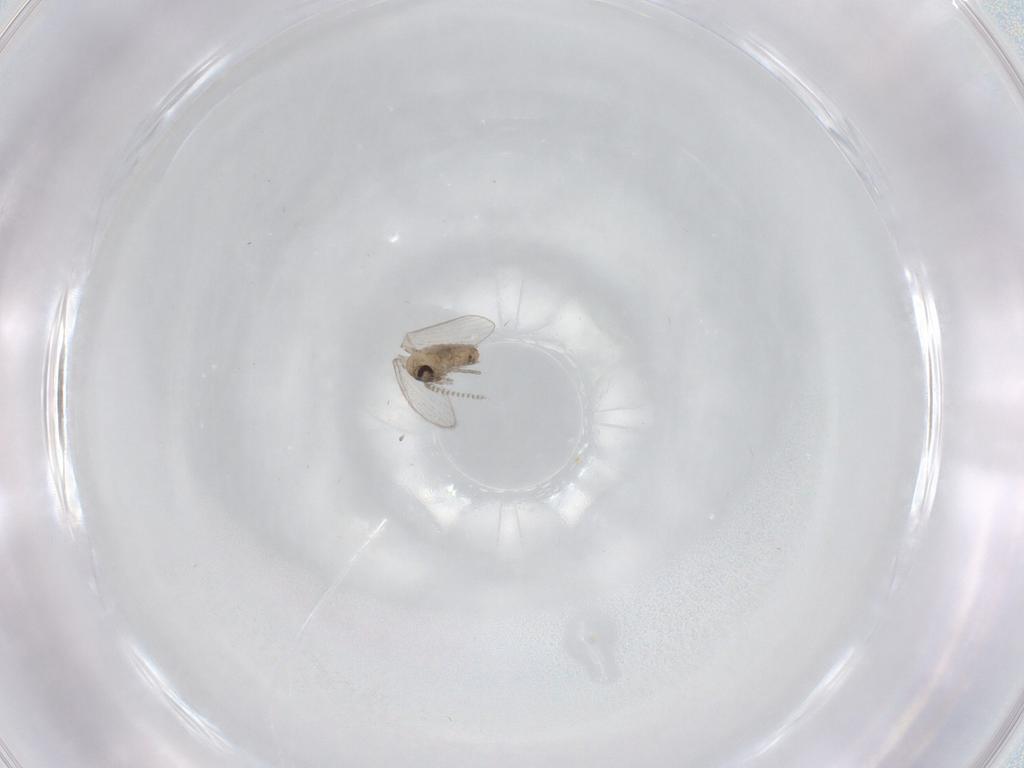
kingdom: Animalia
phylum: Arthropoda
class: Insecta
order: Diptera
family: Psychodidae
